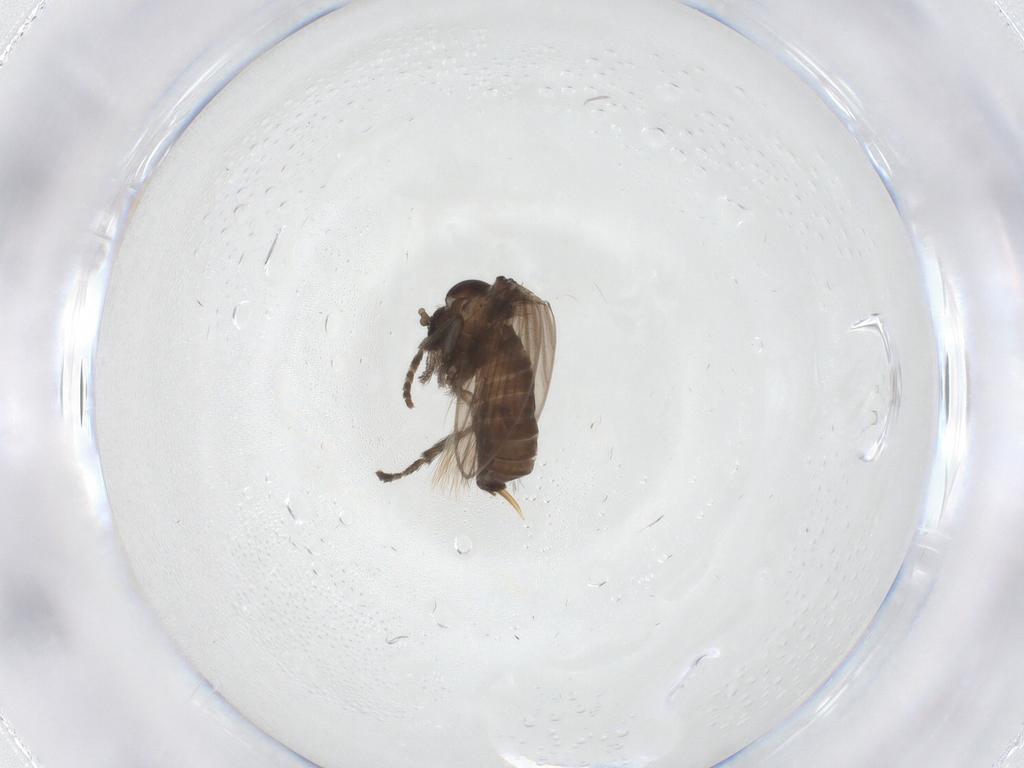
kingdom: Animalia
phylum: Arthropoda
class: Insecta
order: Diptera
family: Psychodidae
